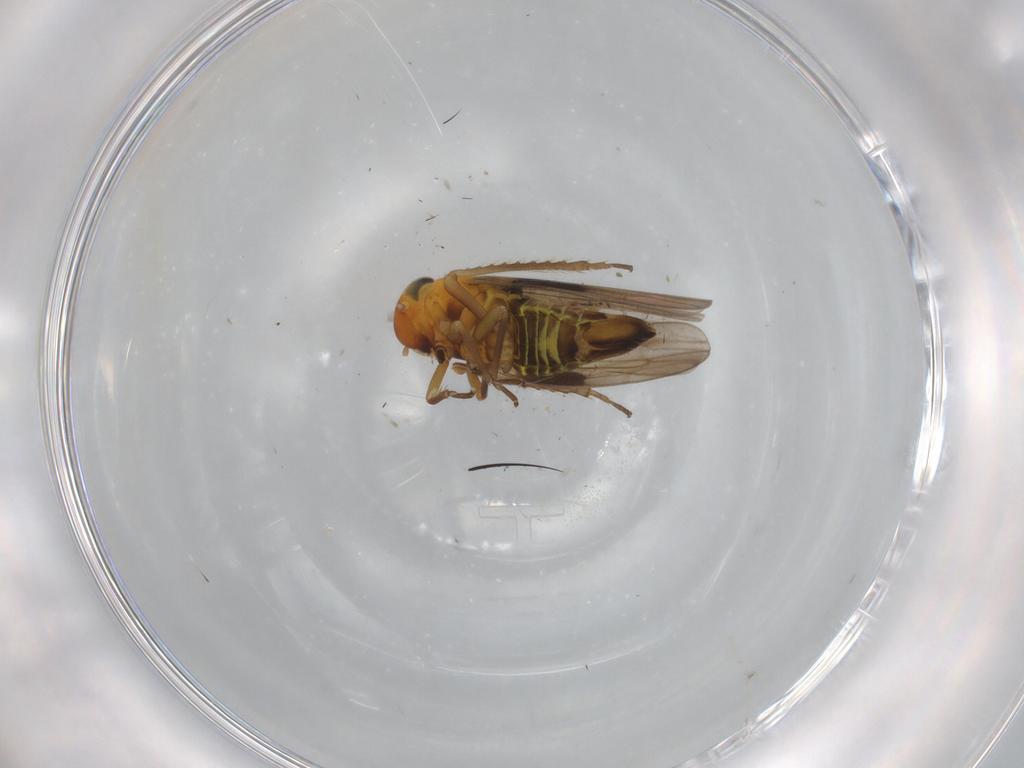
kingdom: Animalia
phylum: Arthropoda
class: Insecta
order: Hemiptera
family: Cicadellidae
